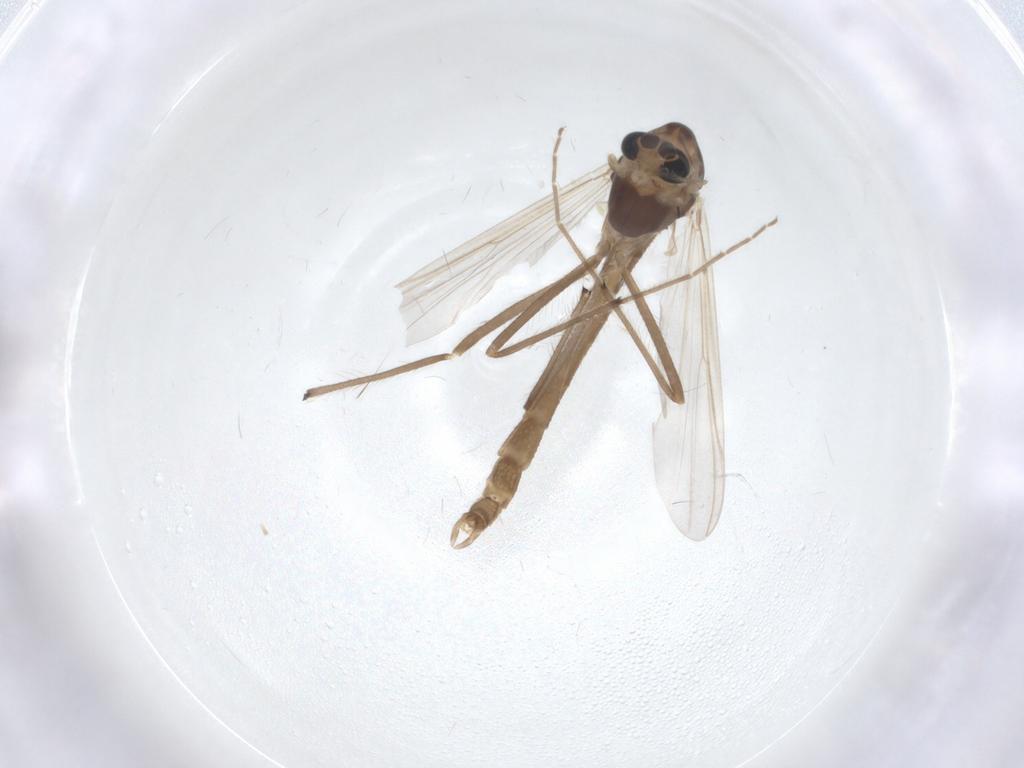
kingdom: Animalia
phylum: Arthropoda
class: Insecta
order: Diptera
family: Chironomidae
